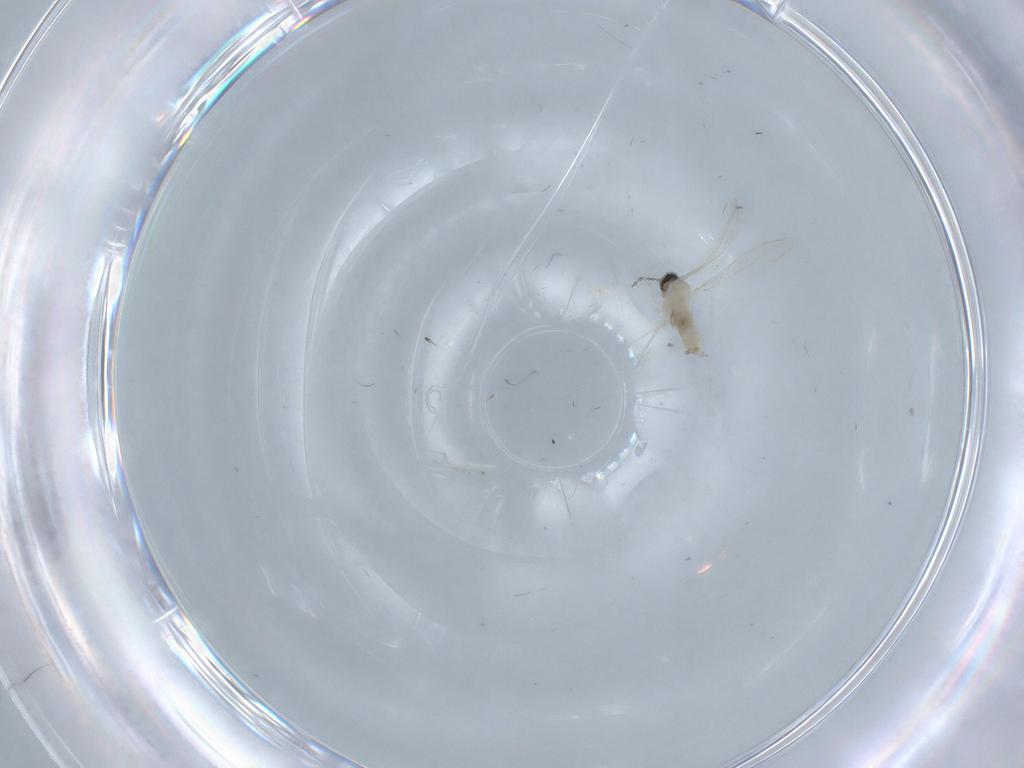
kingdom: Animalia
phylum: Arthropoda
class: Insecta
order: Diptera
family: Cecidomyiidae
